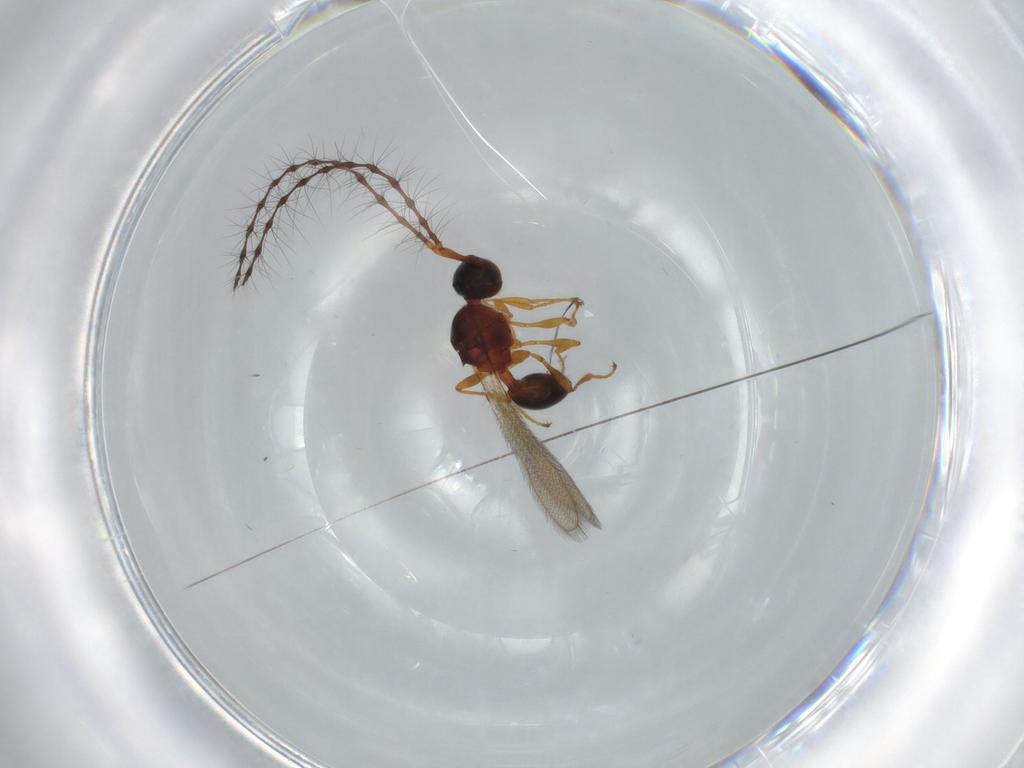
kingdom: Animalia
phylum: Arthropoda
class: Insecta
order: Hymenoptera
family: Diapriidae
